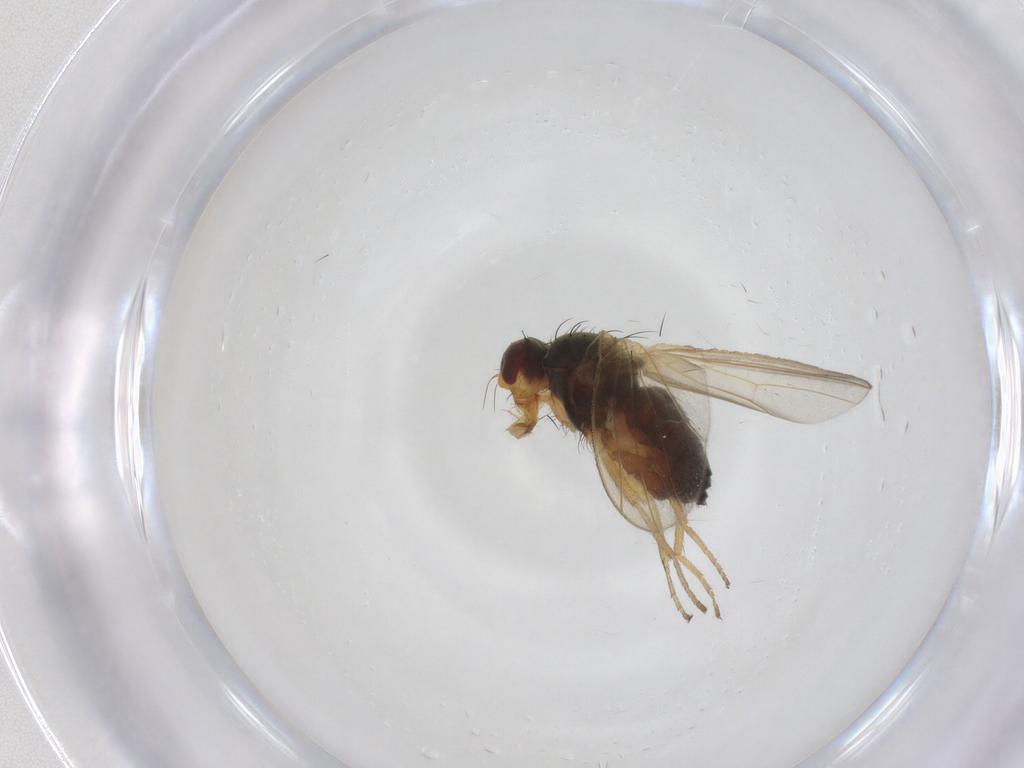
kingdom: Animalia
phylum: Arthropoda
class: Insecta
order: Diptera
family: Heleomyzidae
